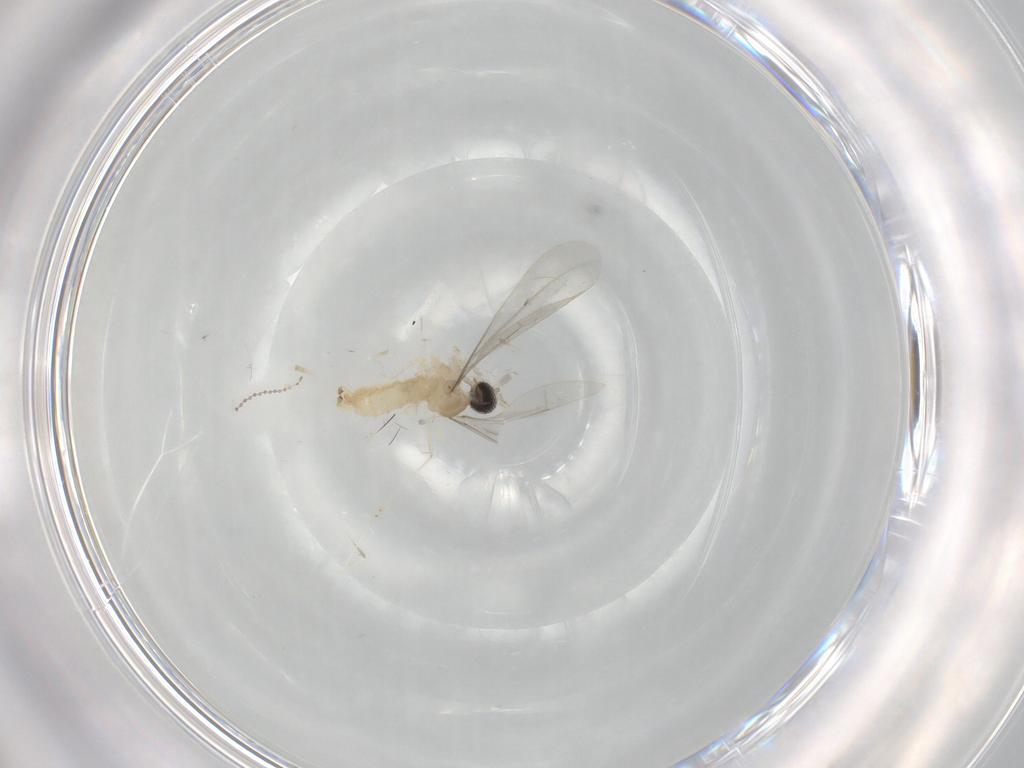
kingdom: Animalia
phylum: Arthropoda
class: Insecta
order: Diptera
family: Cecidomyiidae
